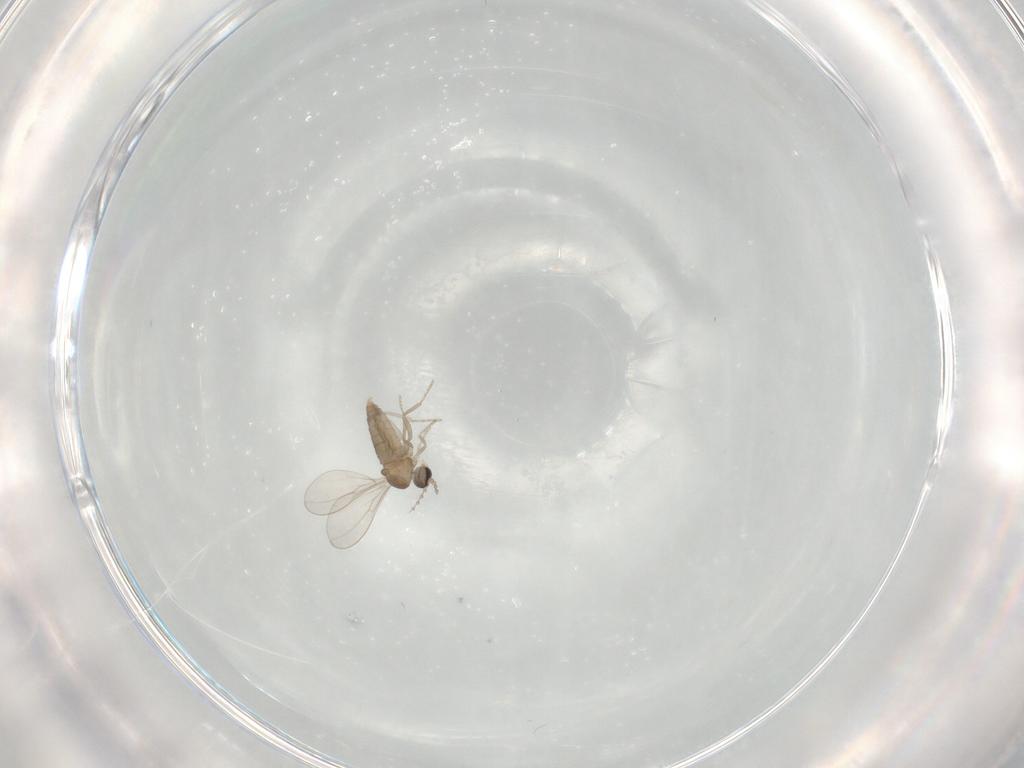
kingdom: Animalia
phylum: Arthropoda
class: Insecta
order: Diptera
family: Cecidomyiidae
